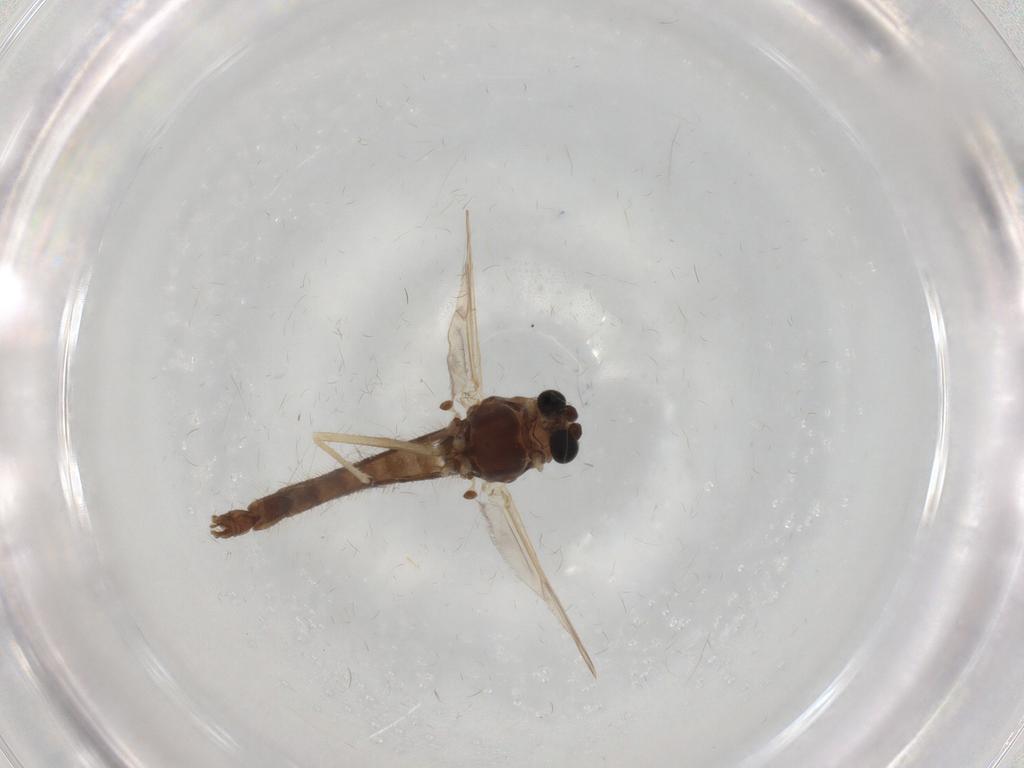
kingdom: Animalia
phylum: Arthropoda
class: Insecta
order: Diptera
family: Chironomidae
